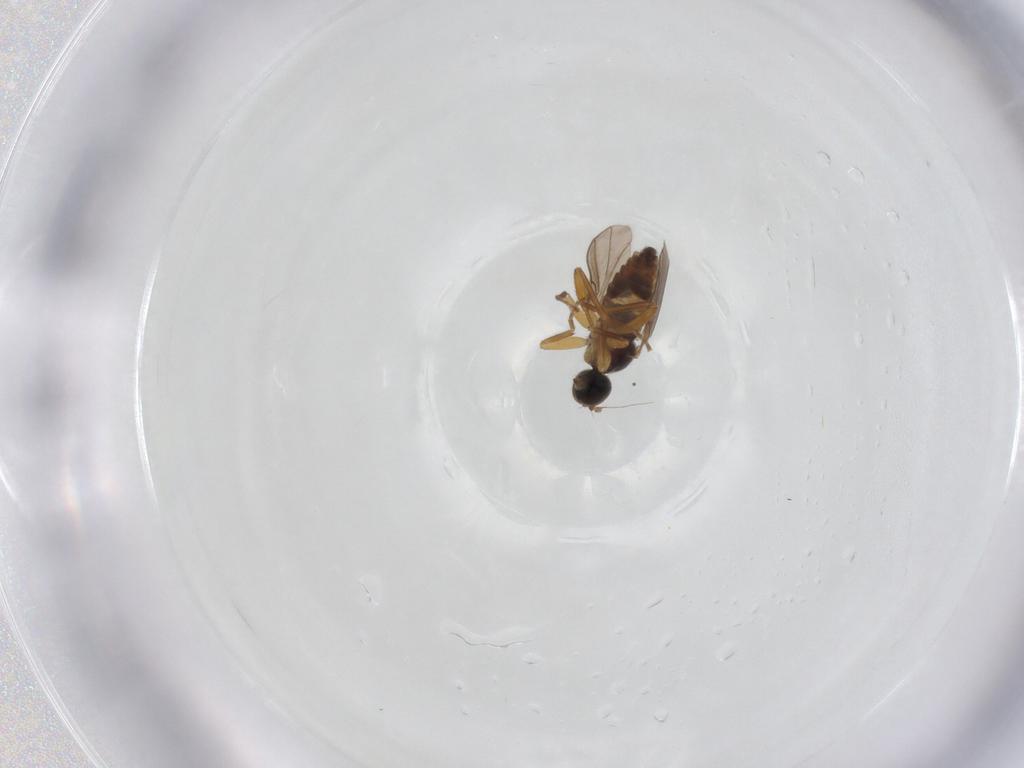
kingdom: Animalia
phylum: Arthropoda
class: Insecta
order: Diptera
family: Hybotidae
